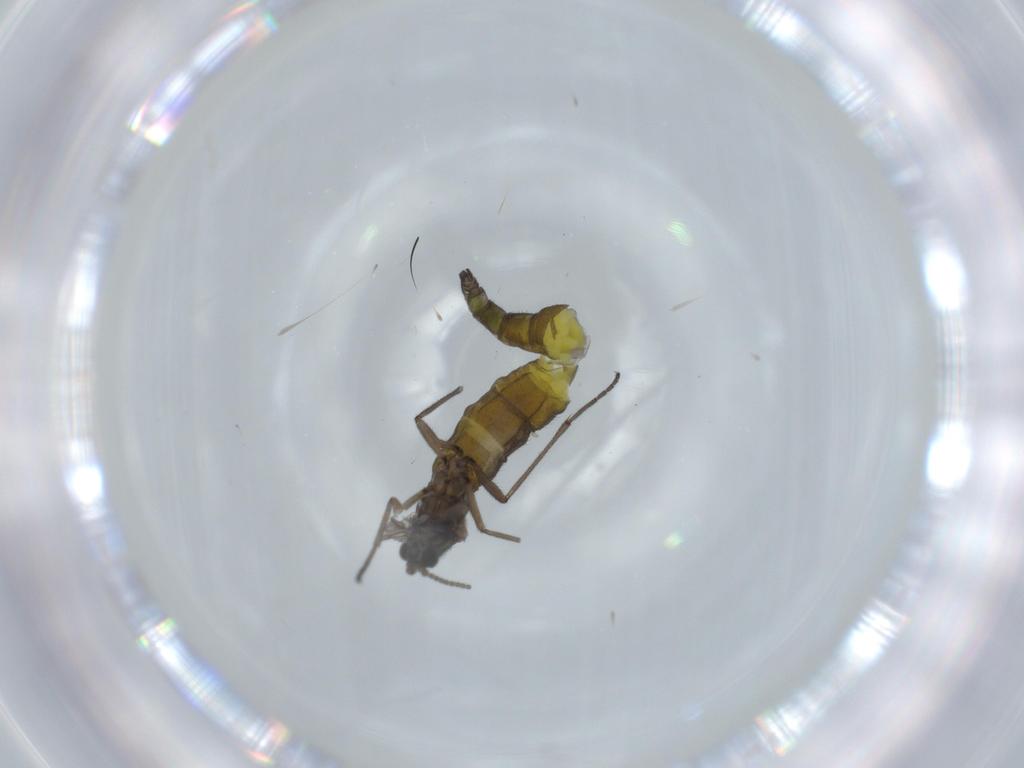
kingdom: Animalia
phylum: Arthropoda
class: Insecta
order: Diptera
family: Sciaridae
